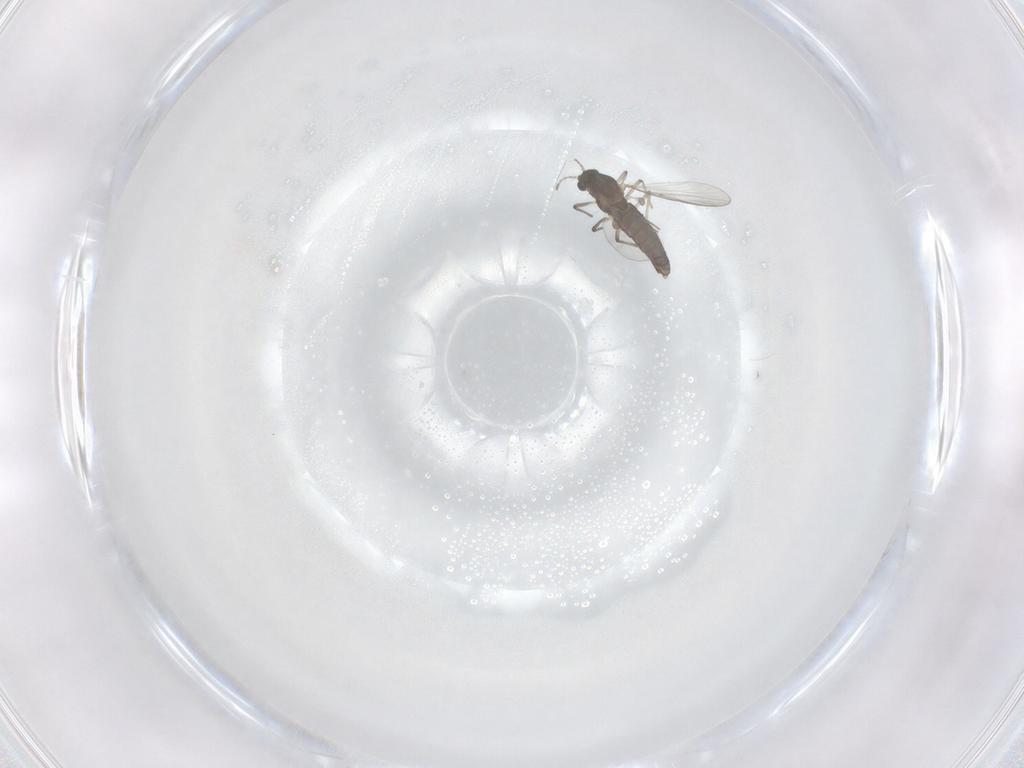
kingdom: Animalia
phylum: Arthropoda
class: Insecta
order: Diptera
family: Chironomidae
